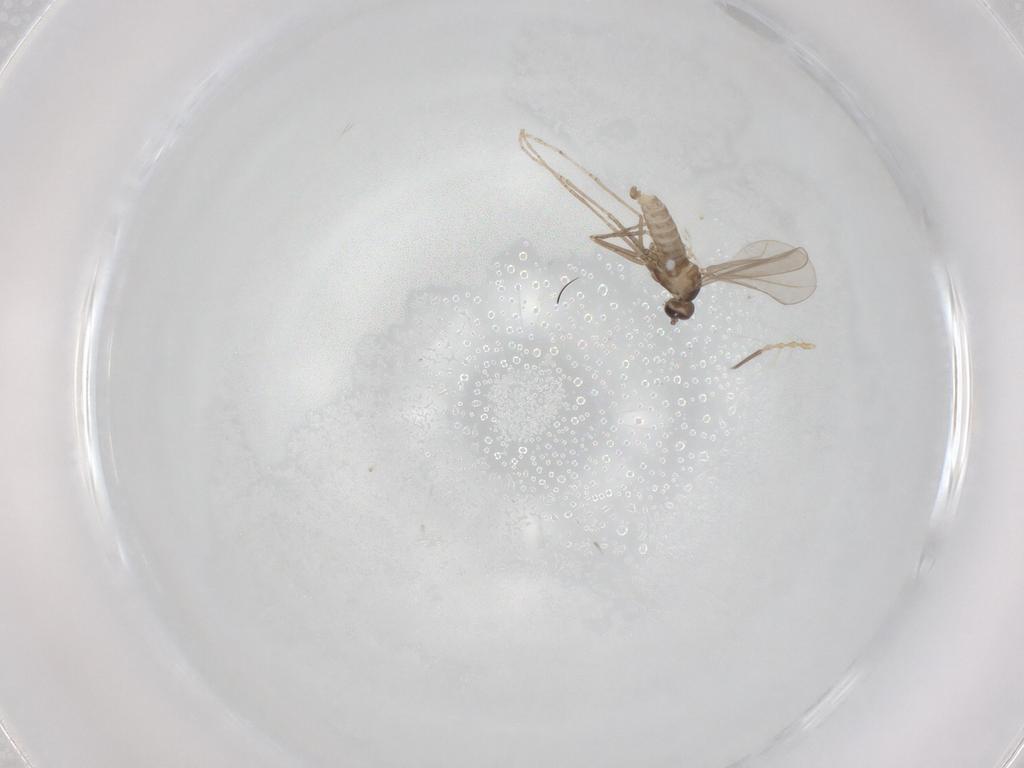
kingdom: Animalia
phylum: Arthropoda
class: Insecta
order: Diptera
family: Cecidomyiidae
